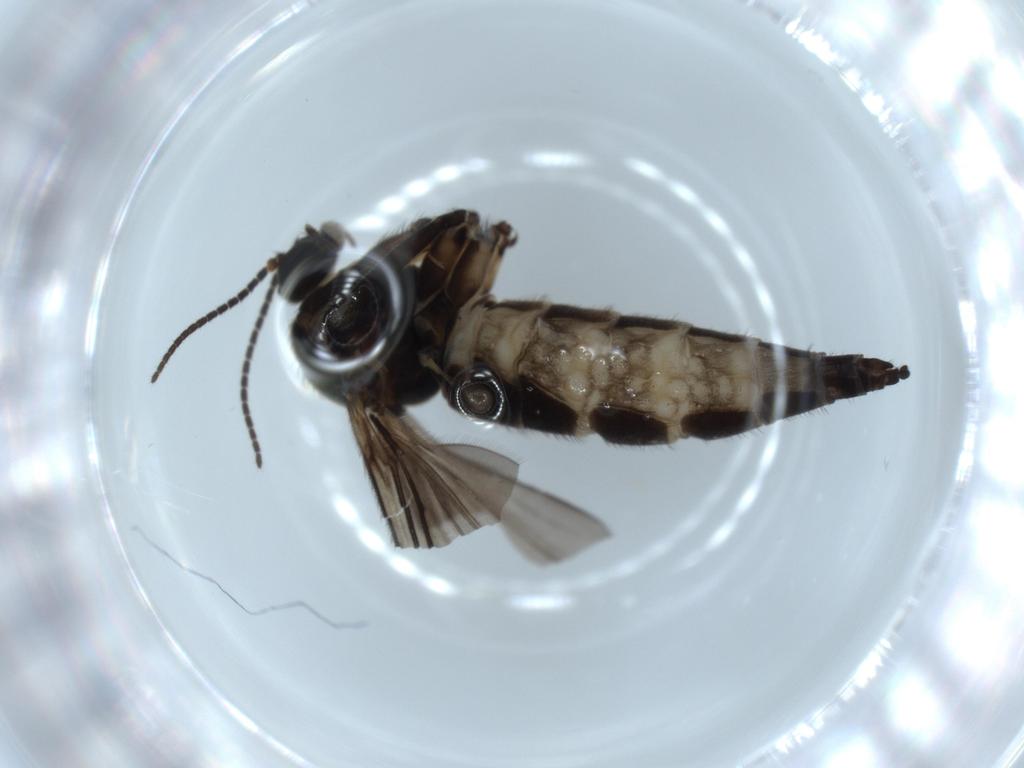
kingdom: Animalia
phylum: Arthropoda
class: Insecta
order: Diptera
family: Sciaridae
